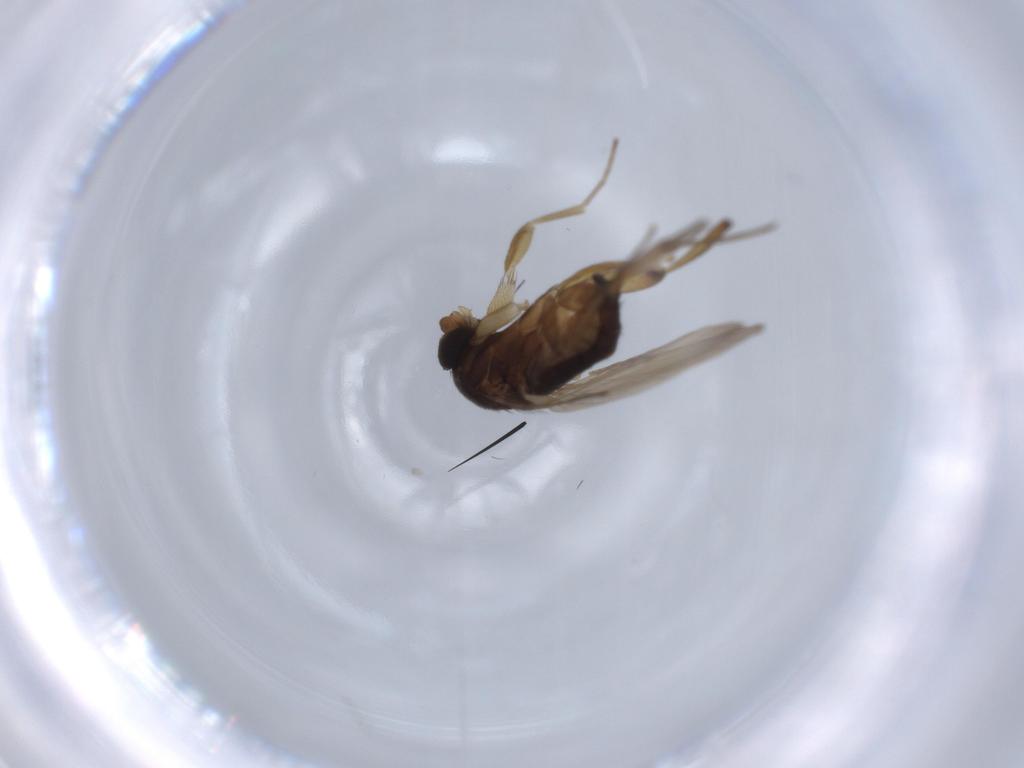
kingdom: Animalia
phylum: Arthropoda
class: Insecta
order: Diptera
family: Phoridae
